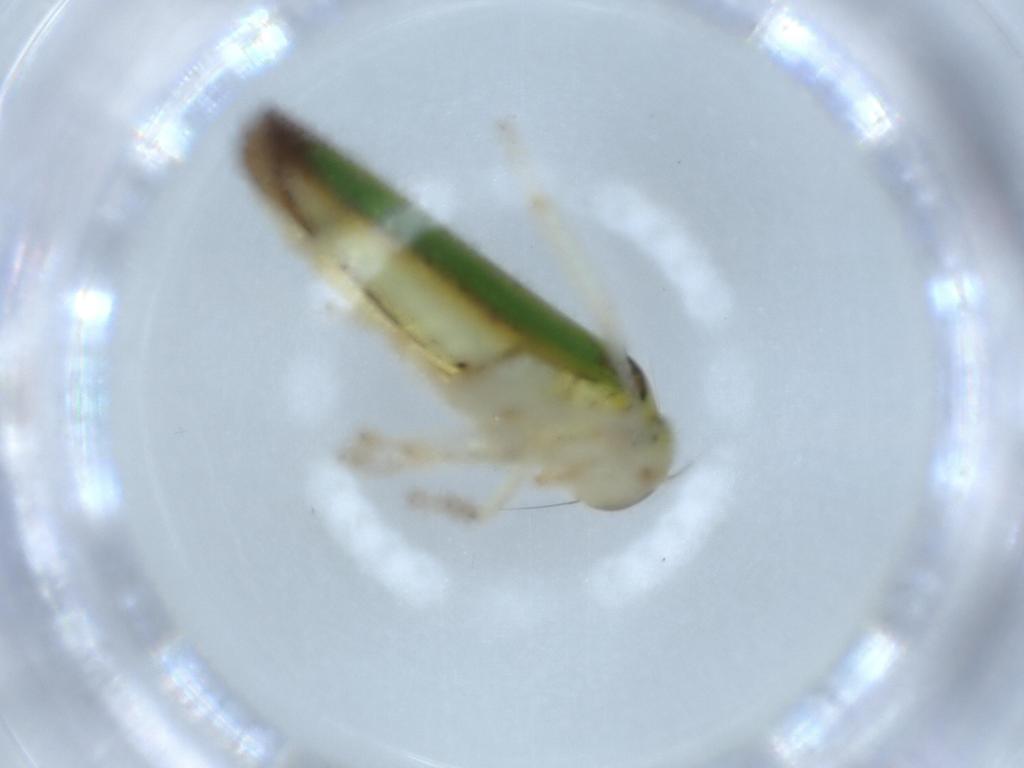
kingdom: Animalia
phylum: Arthropoda
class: Insecta
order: Hemiptera
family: Cicadellidae
